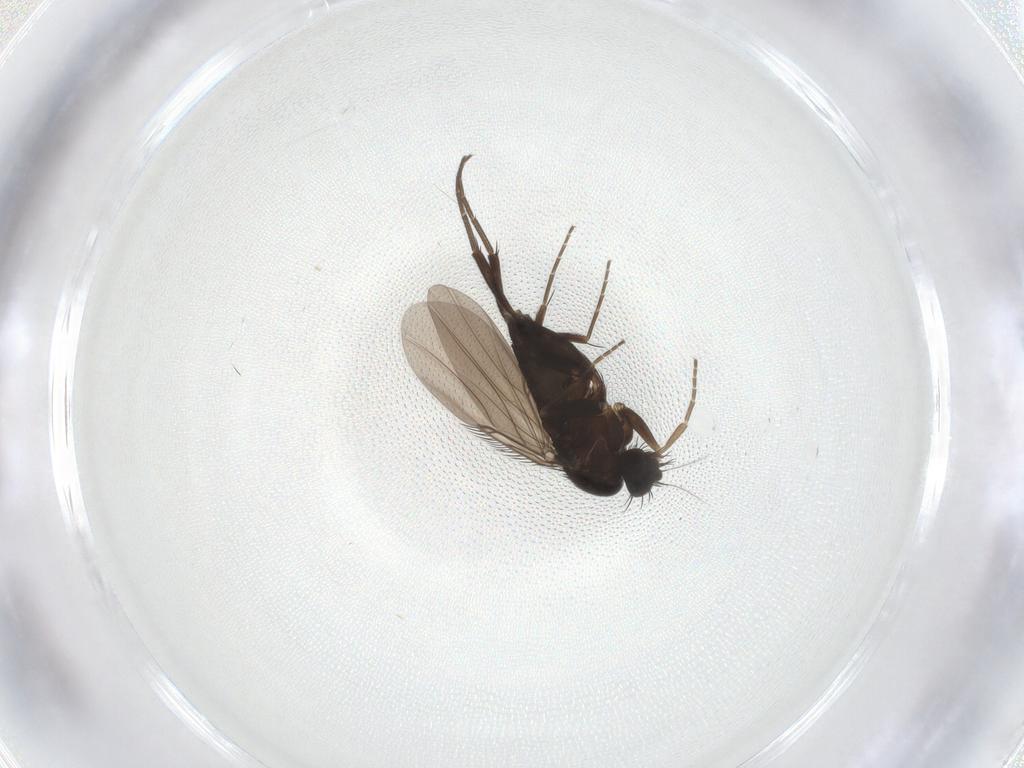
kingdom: Animalia
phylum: Arthropoda
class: Insecta
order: Diptera
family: Phoridae
